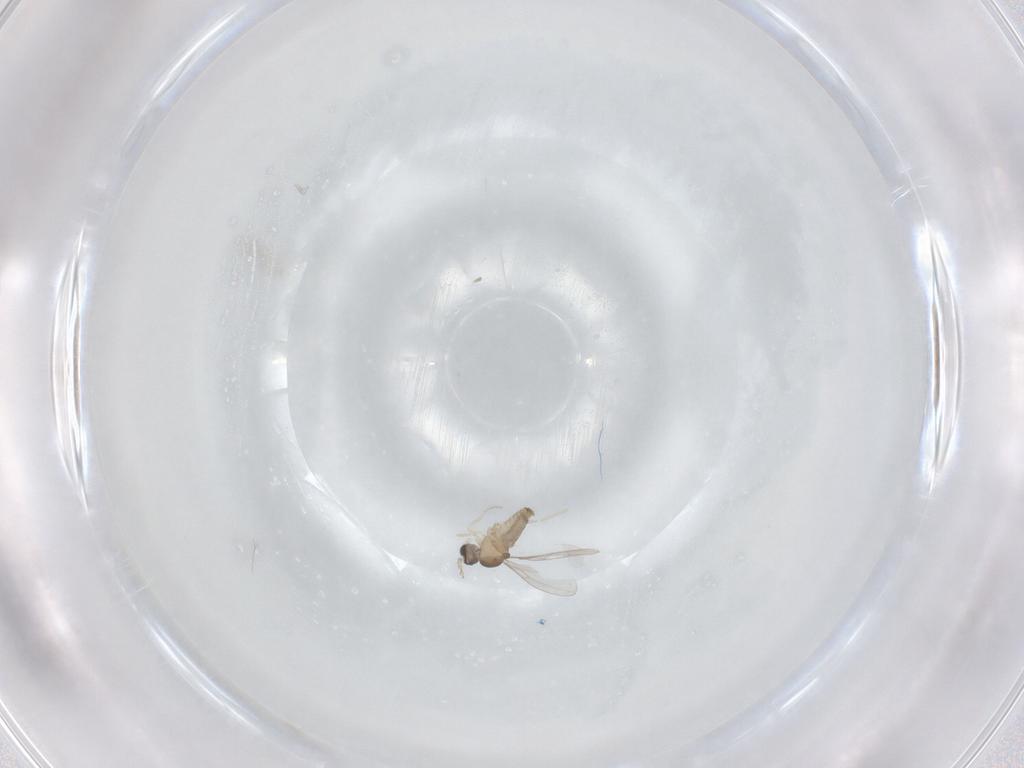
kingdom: Animalia
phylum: Arthropoda
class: Insecta
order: Diptera
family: Cecidomyiidae
